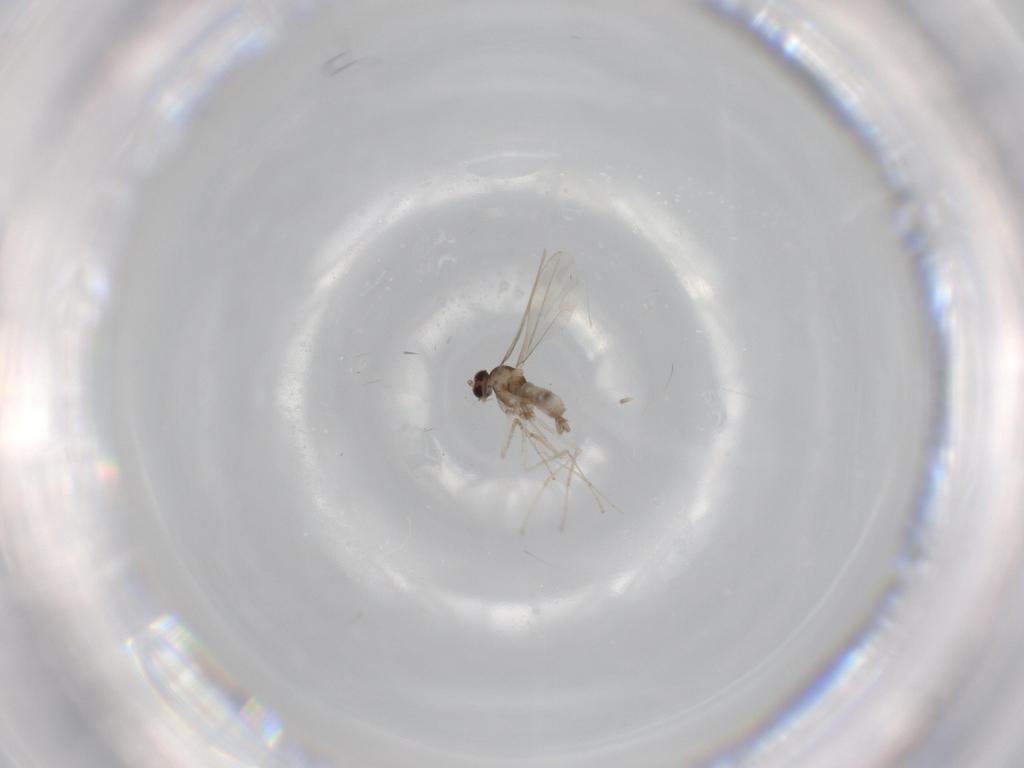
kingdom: Animalia
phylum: Arthropoda
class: Insecta
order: Diptera
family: Cecidomyiidae
